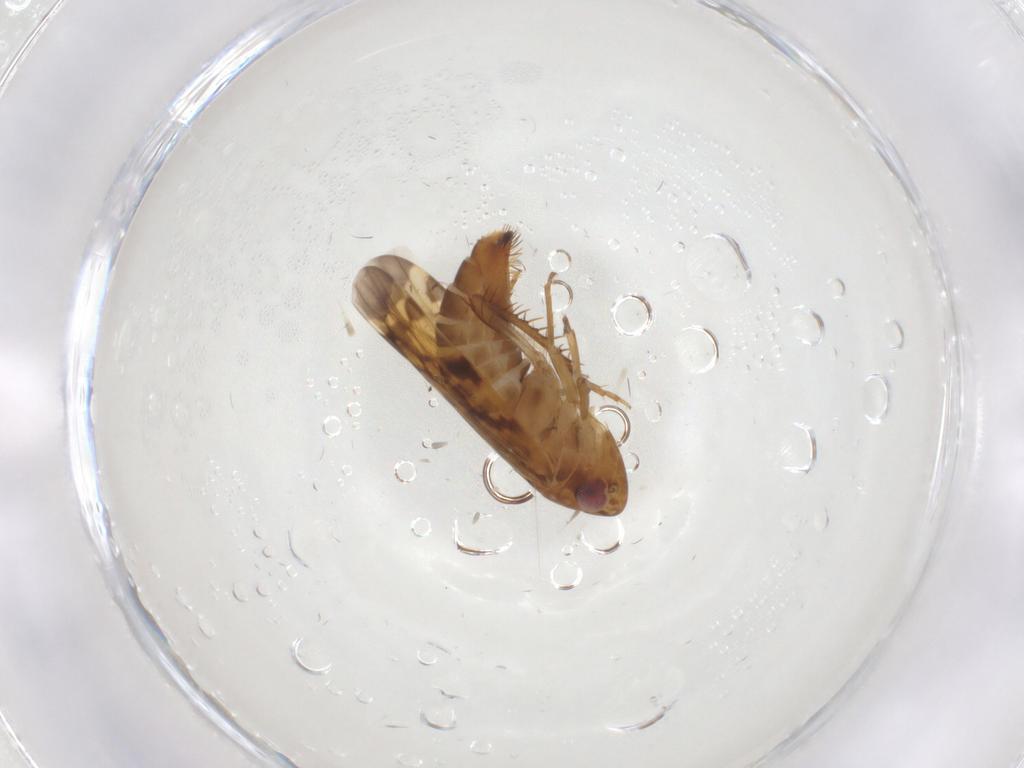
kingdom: Animalia
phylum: Arthropoda
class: Insecta
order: Hemiptera
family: Cicadellidae
